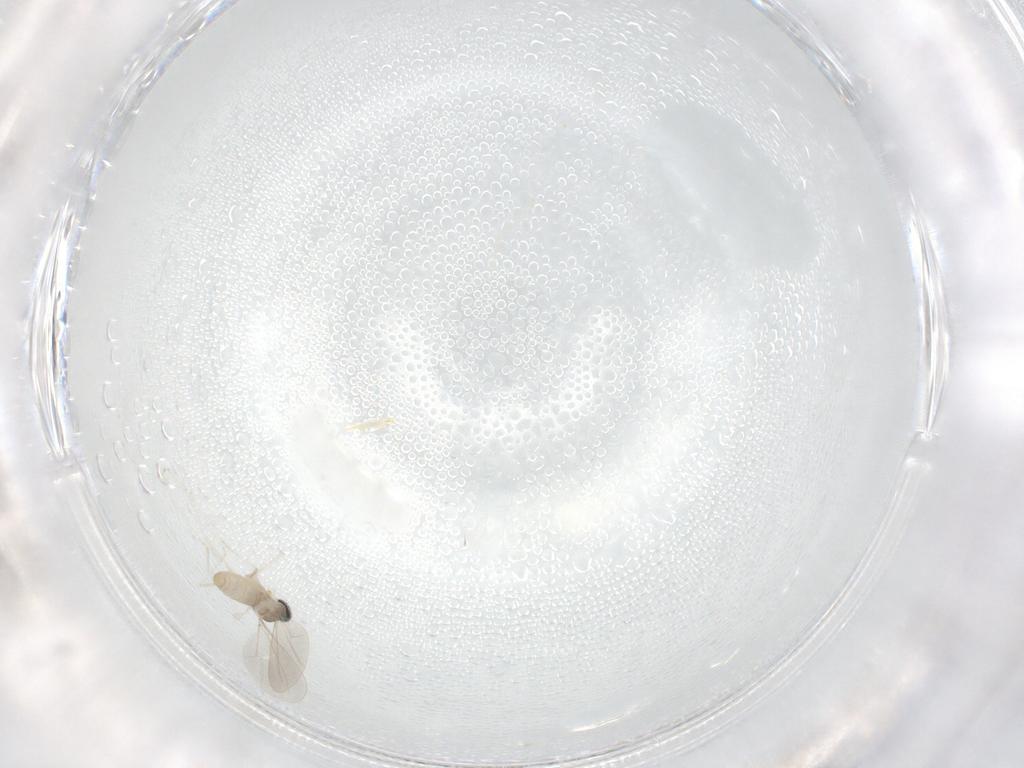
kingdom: Animalia
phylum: Arthropoda
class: Insecta
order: Diptera
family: Cecidomyiidae
